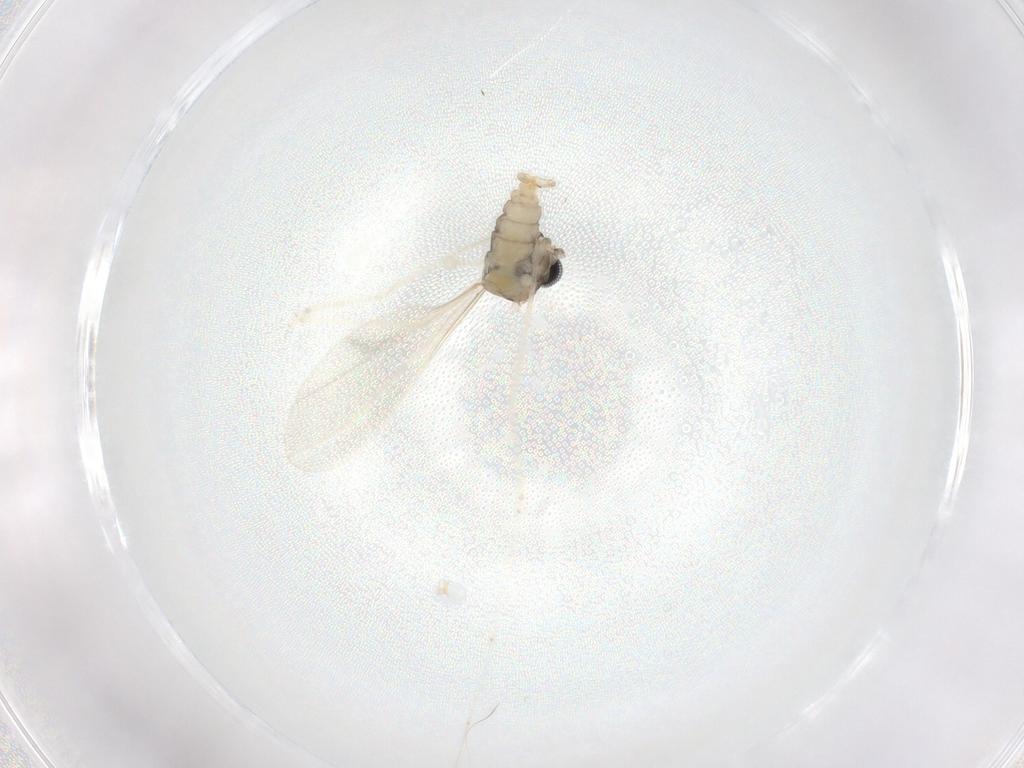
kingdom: Animalia
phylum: Arthropoda
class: Insecta
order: Diptera
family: Cecidomyiidae
